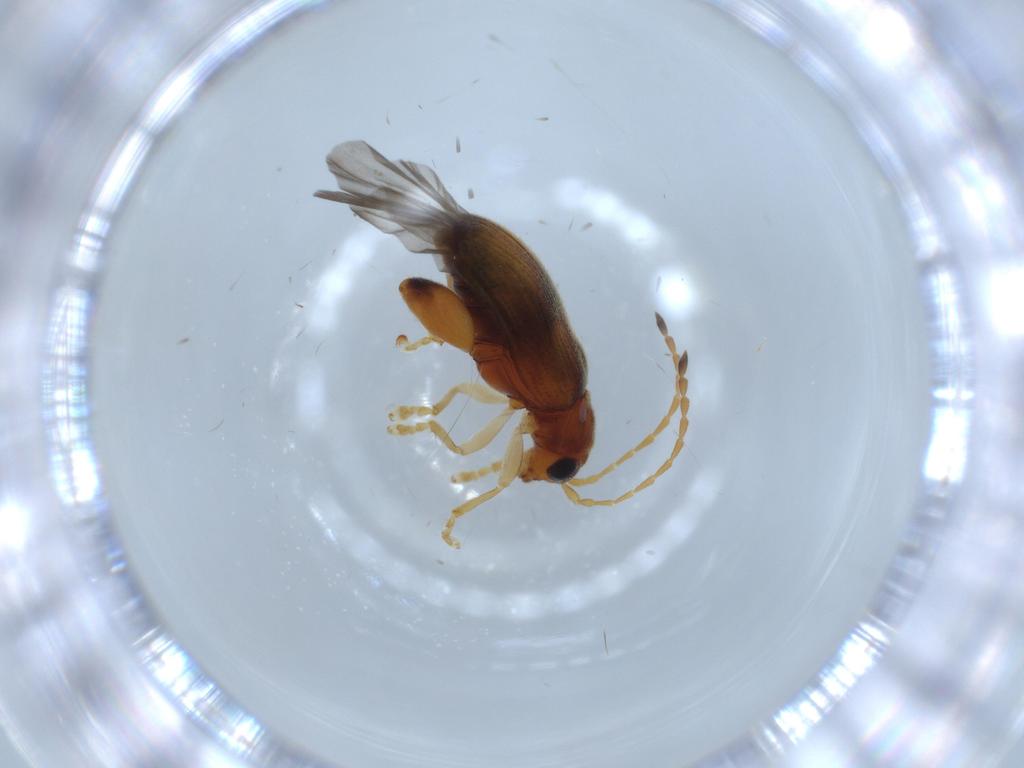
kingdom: Animalia
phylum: Arthropoda
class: Insecta
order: Coleoptera
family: Chrysomelidae
